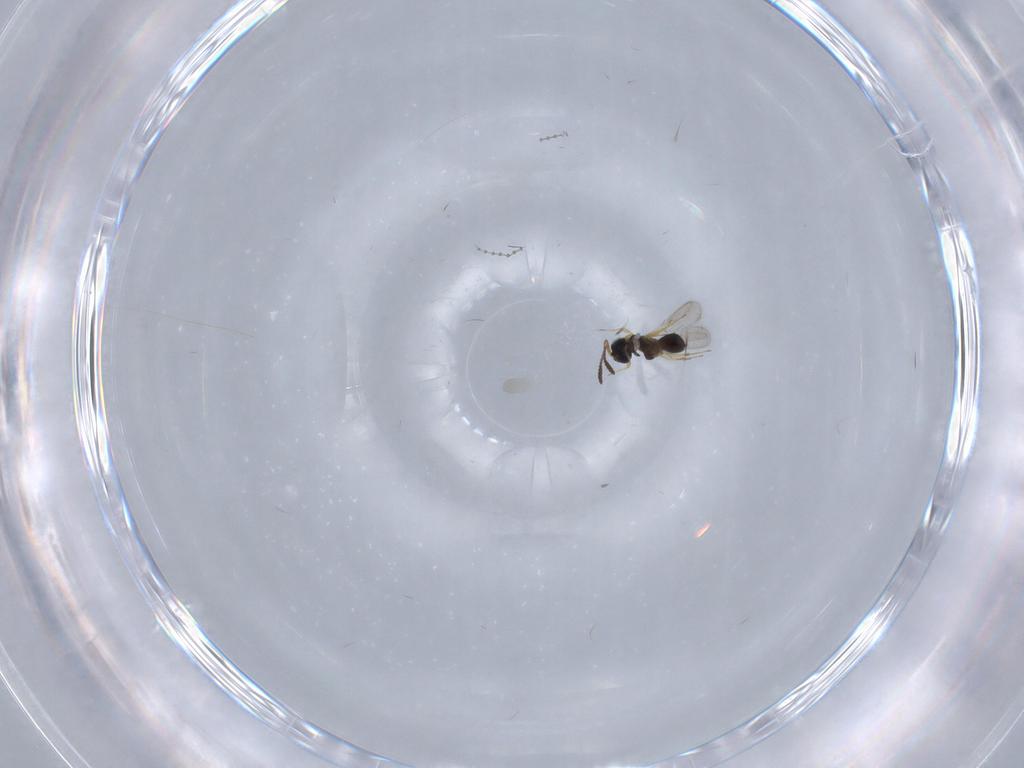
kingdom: Animalia
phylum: Arthropoda
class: Insecta
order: Hymenoptera
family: Scelionidae
